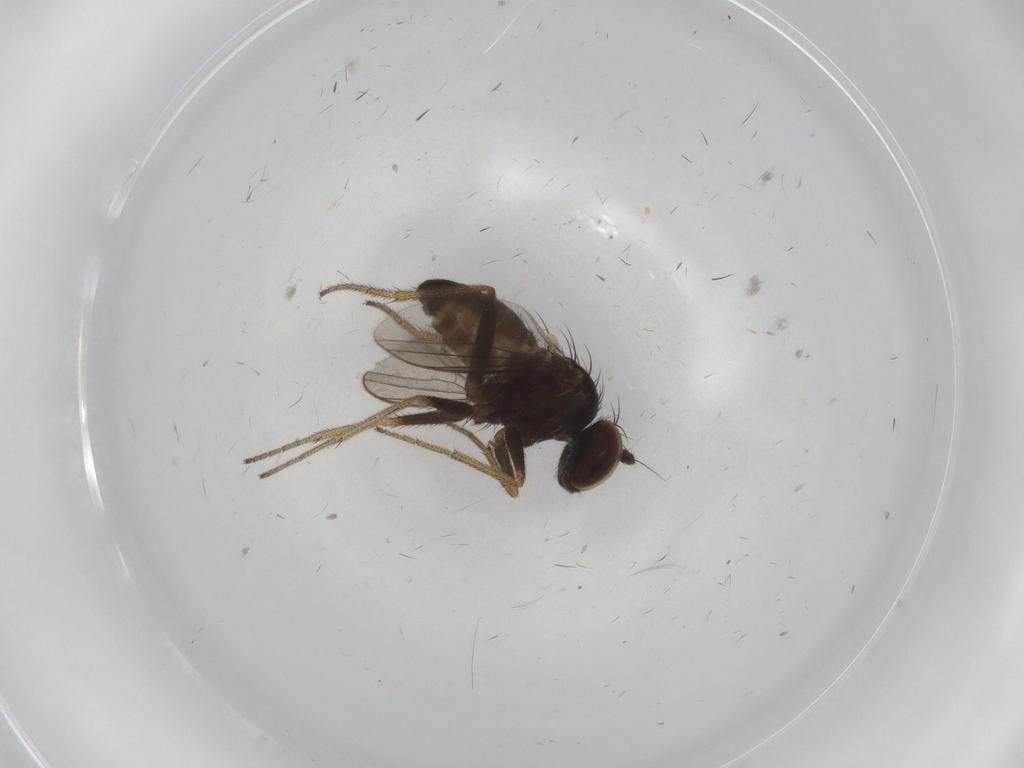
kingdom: Animalia
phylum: Arthropoda
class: Insecta
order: Diptera
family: Dolichopodidae
